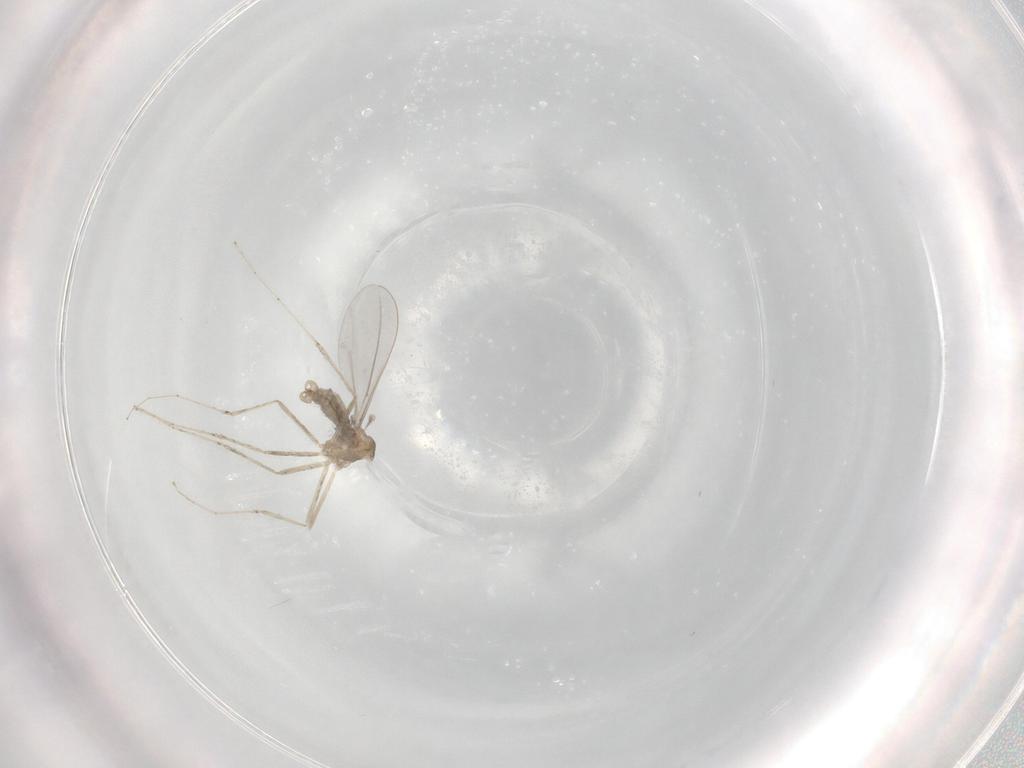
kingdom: Animalia
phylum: Arthropoda
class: Insecta
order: Diptera
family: Cecidomyiidae
